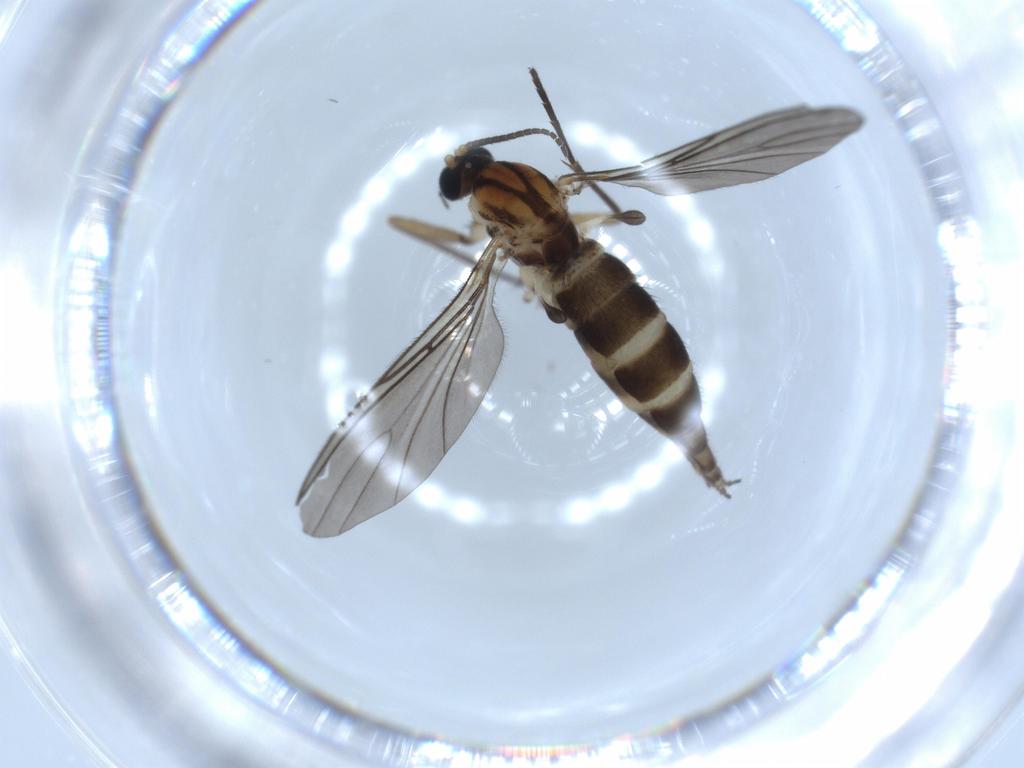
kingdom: Animalia
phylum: Arthropoda
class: Insecta
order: Diptera
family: Sciaridae
